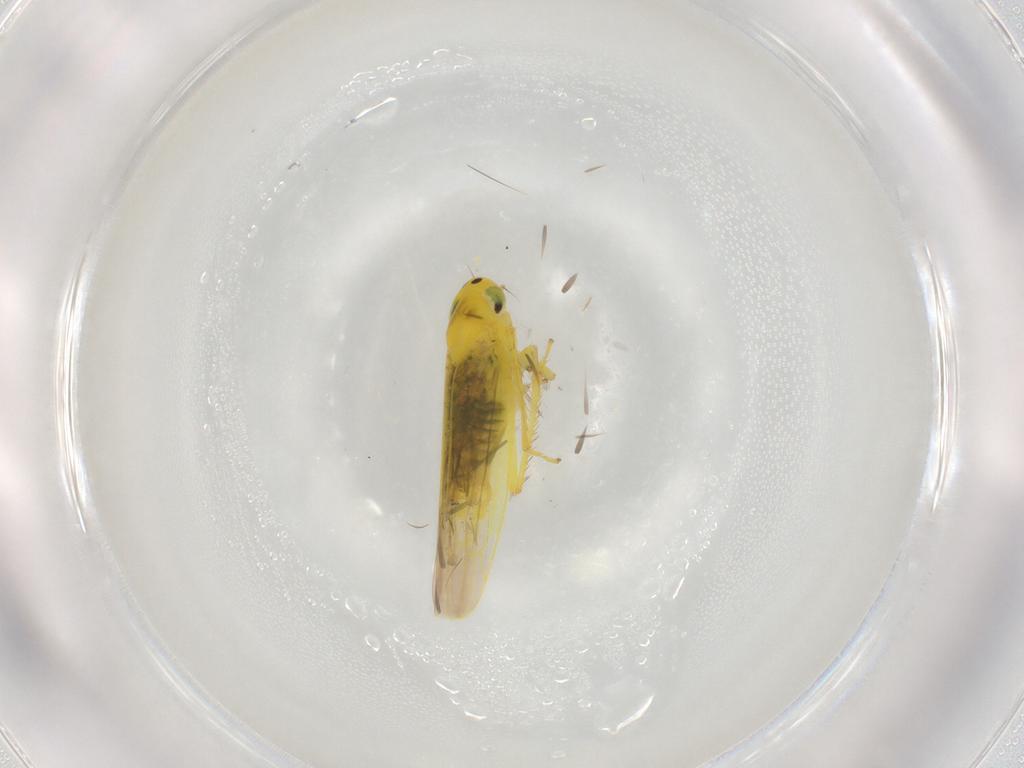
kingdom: Animalia
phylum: Arthropoda
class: Insecta
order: Hemiptera
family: Cicadellidae
